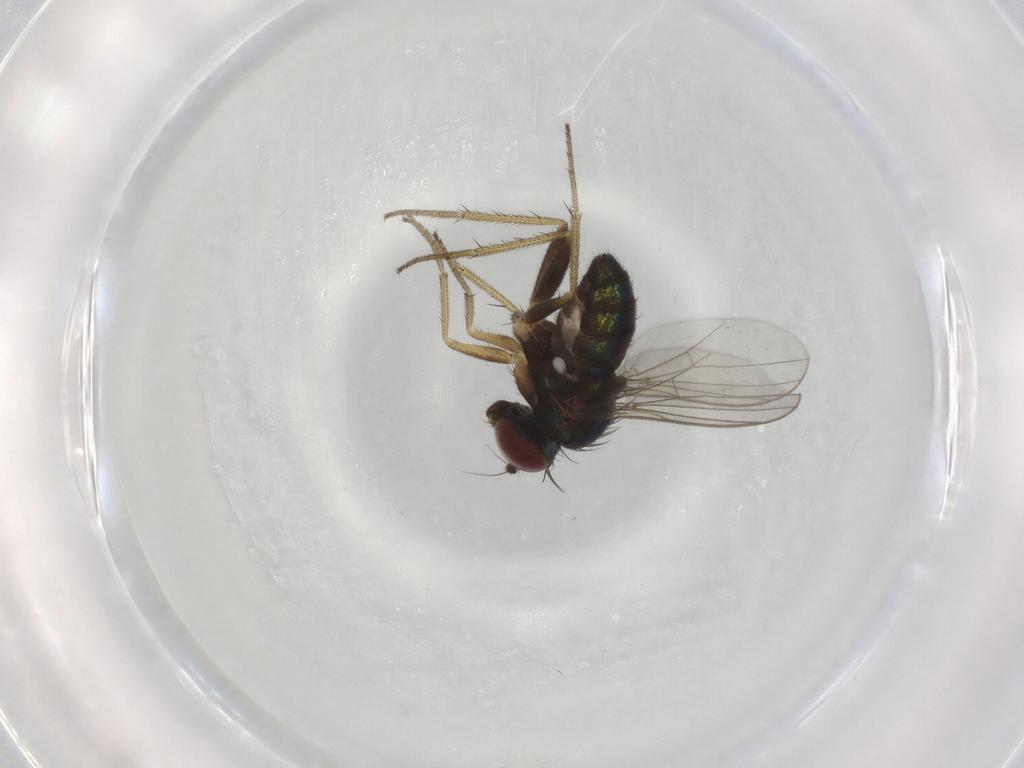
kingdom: Animalia
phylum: Arthropoda
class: Insecta
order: Diptera
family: Dolichopodidae
